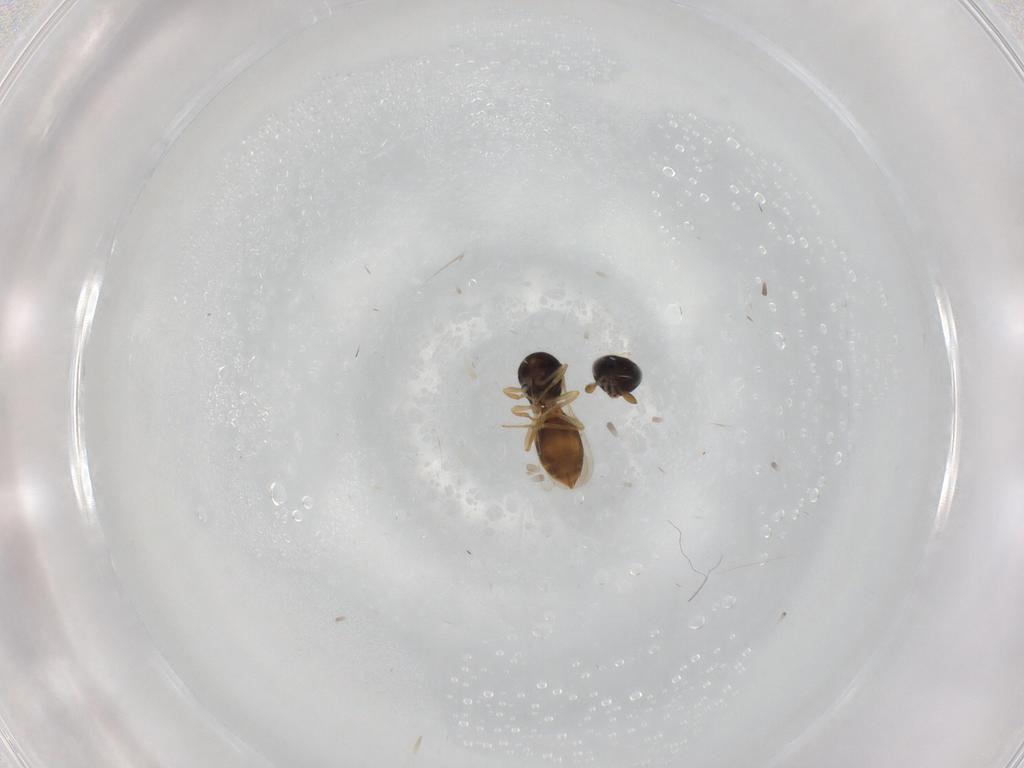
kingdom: Animalia
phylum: Arthropoda
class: Insecta
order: Hymenoptera
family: Scelionidae
